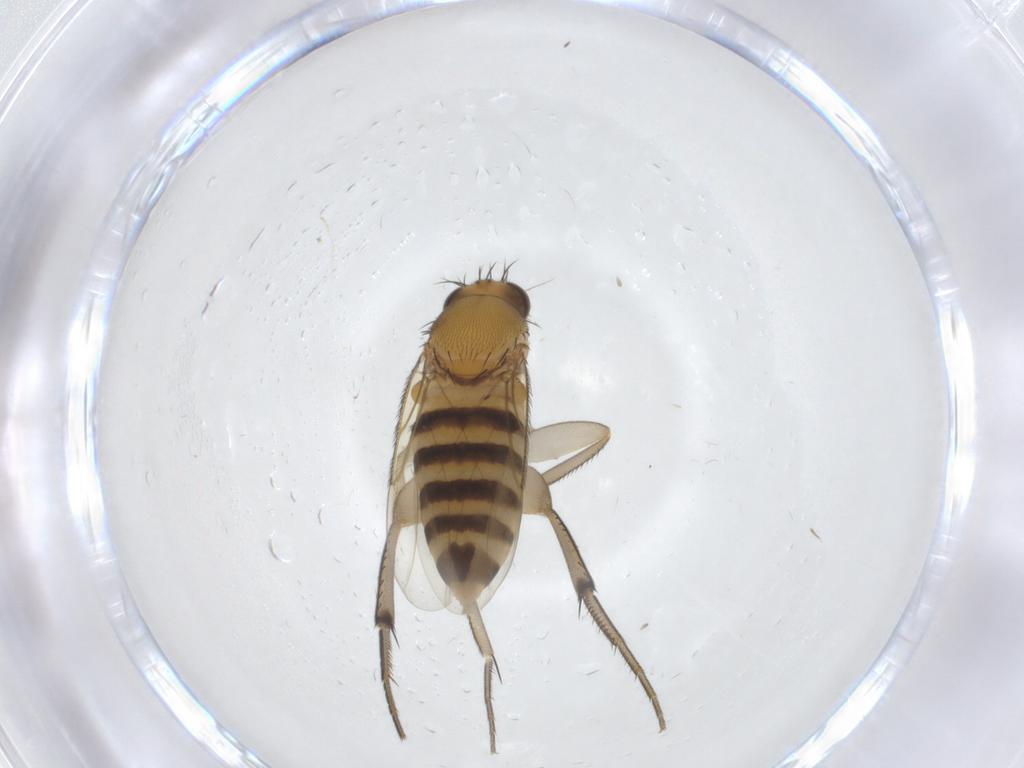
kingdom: Animalia
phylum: Arthropoda
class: Insecta
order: Diptera
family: Phoridae
